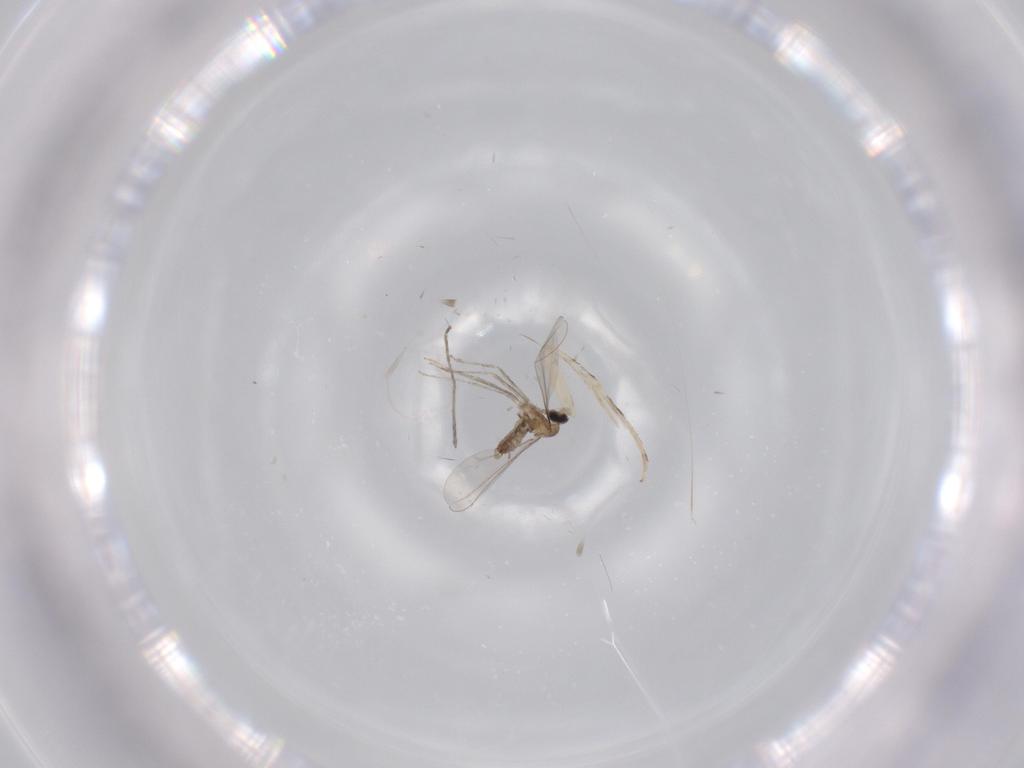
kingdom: Animalia
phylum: Arthropoda
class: Insecta
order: Diptera
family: Cecidomyiidae
